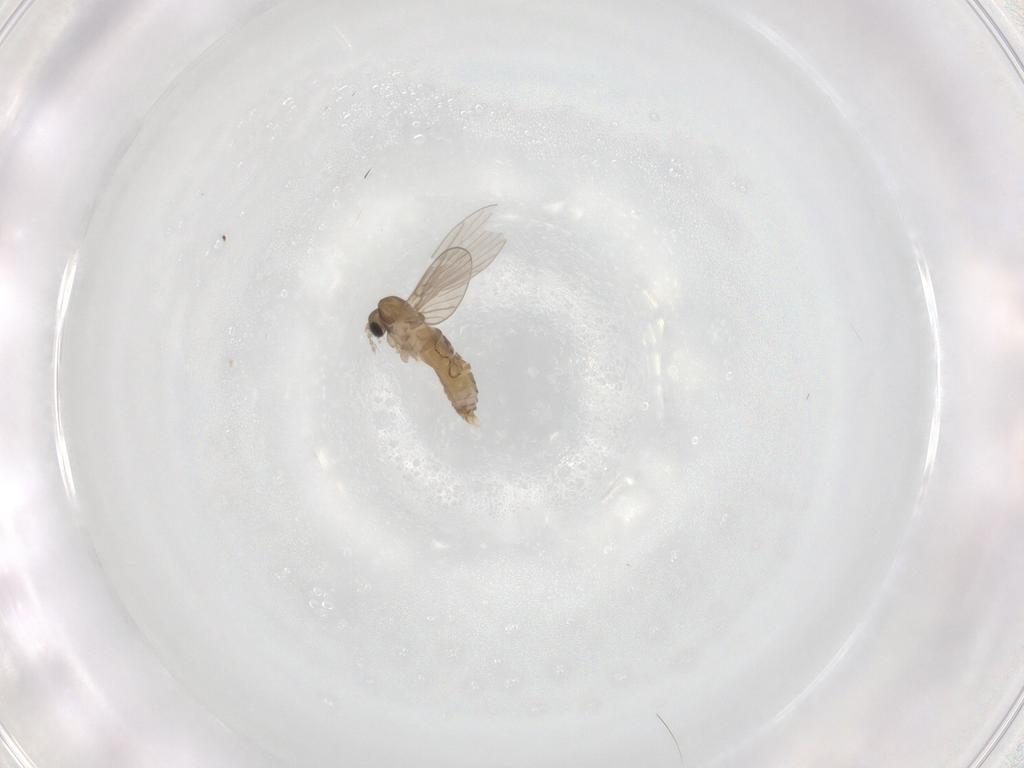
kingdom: Animalia
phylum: Arthropoda
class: Insecta
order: Diptera
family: Psychodidae
